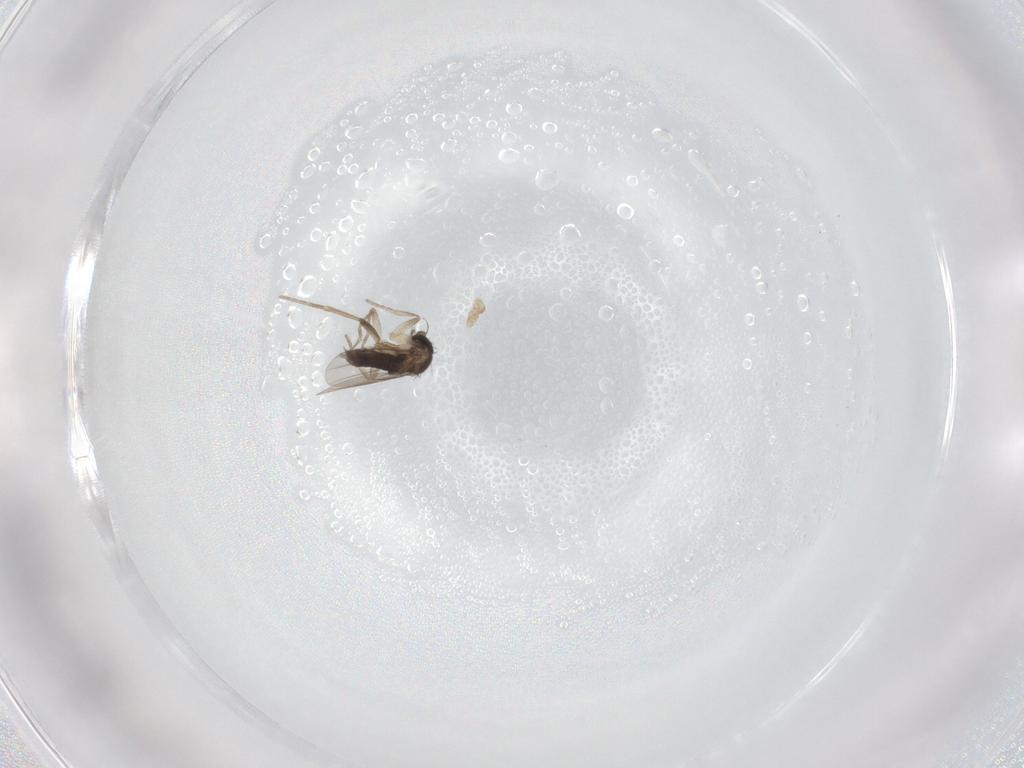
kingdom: Animalia
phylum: Arthropoda
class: Insecta
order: Diptera
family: Phoridae
